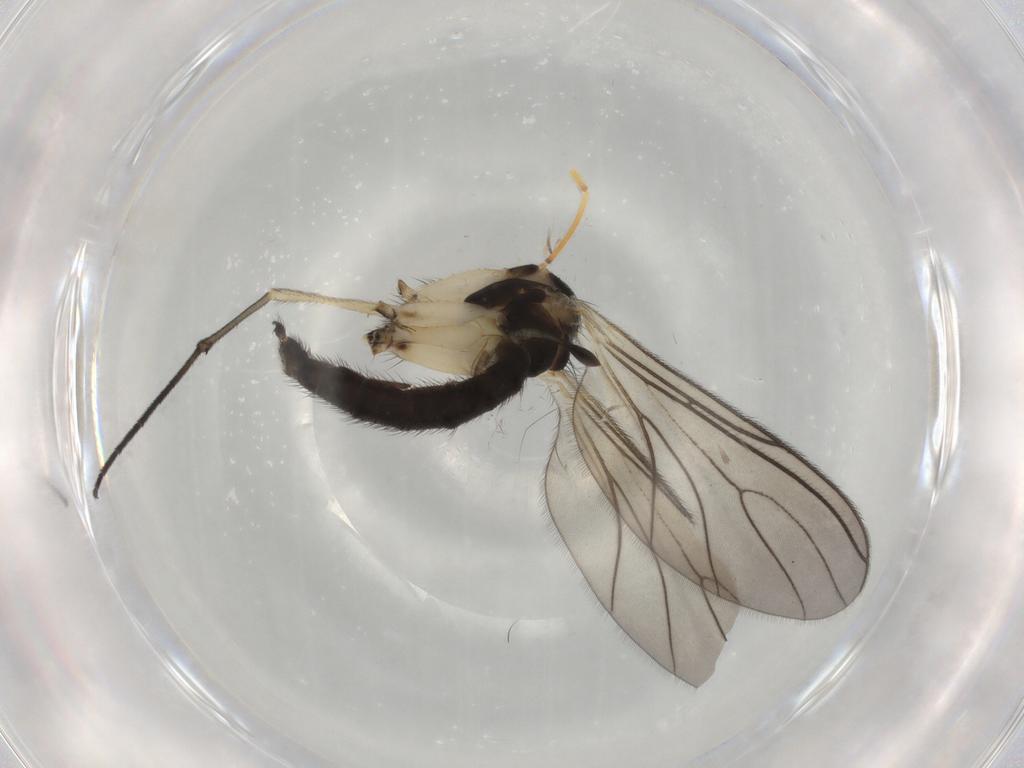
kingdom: Animalia
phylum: Arthropoda
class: Insecta
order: Diptera
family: Sciaridae
